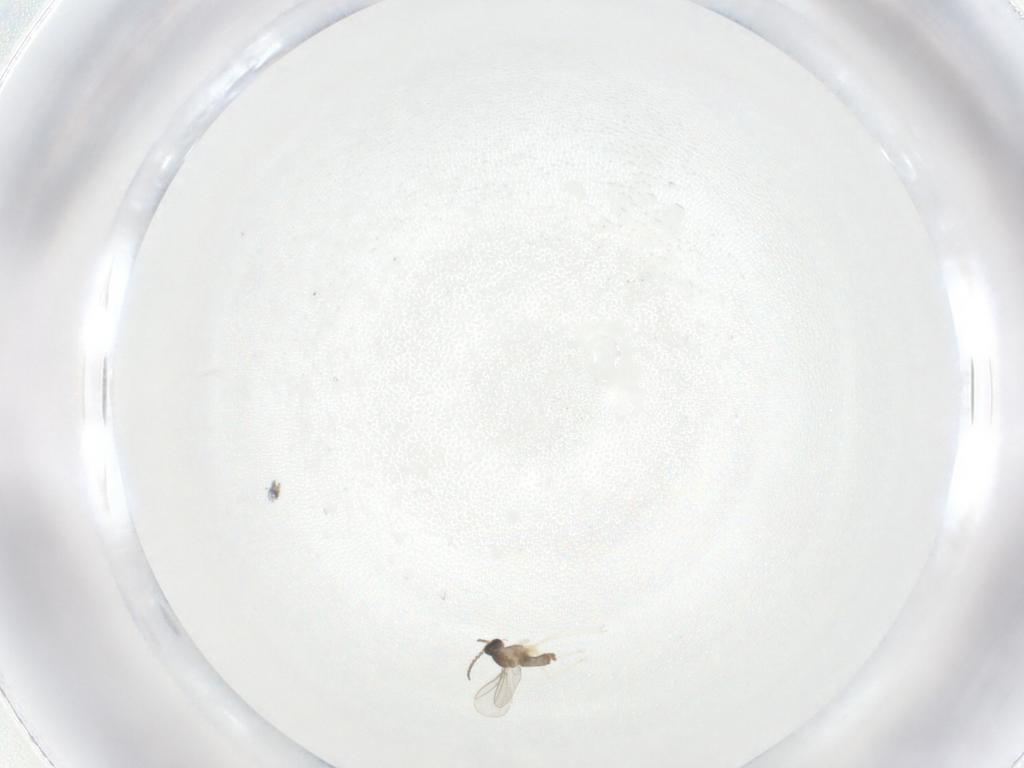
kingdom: Animalia
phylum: Arthropoda
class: Insecta
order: Diptera
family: Cecidomyiidae
